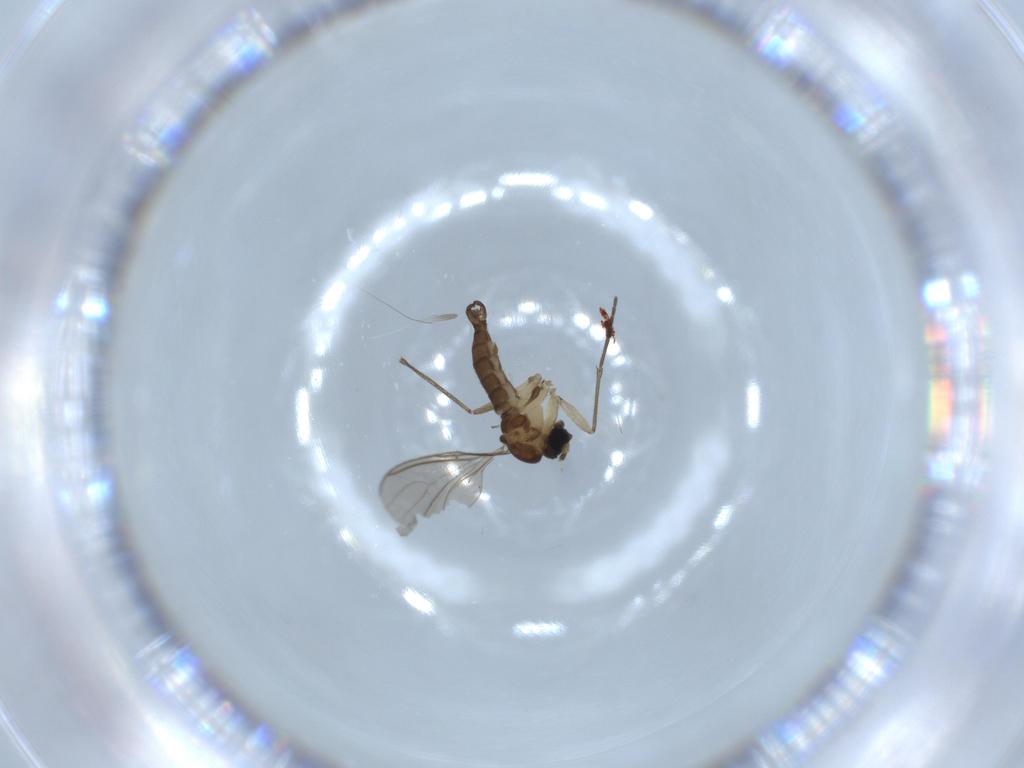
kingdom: Animalia
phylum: Arthropoda
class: Insecta
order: Diptera
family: Sciaridae
